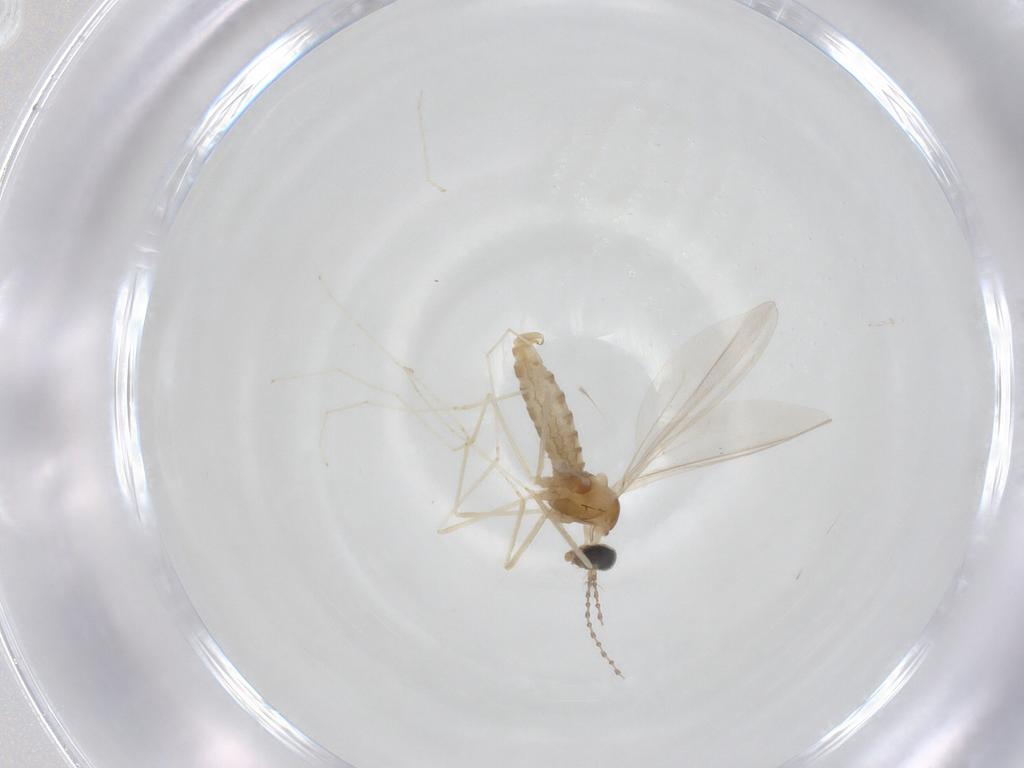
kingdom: Animalia
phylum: Arthropoda
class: Insecta
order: Diptera
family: Cecidomyiidae
